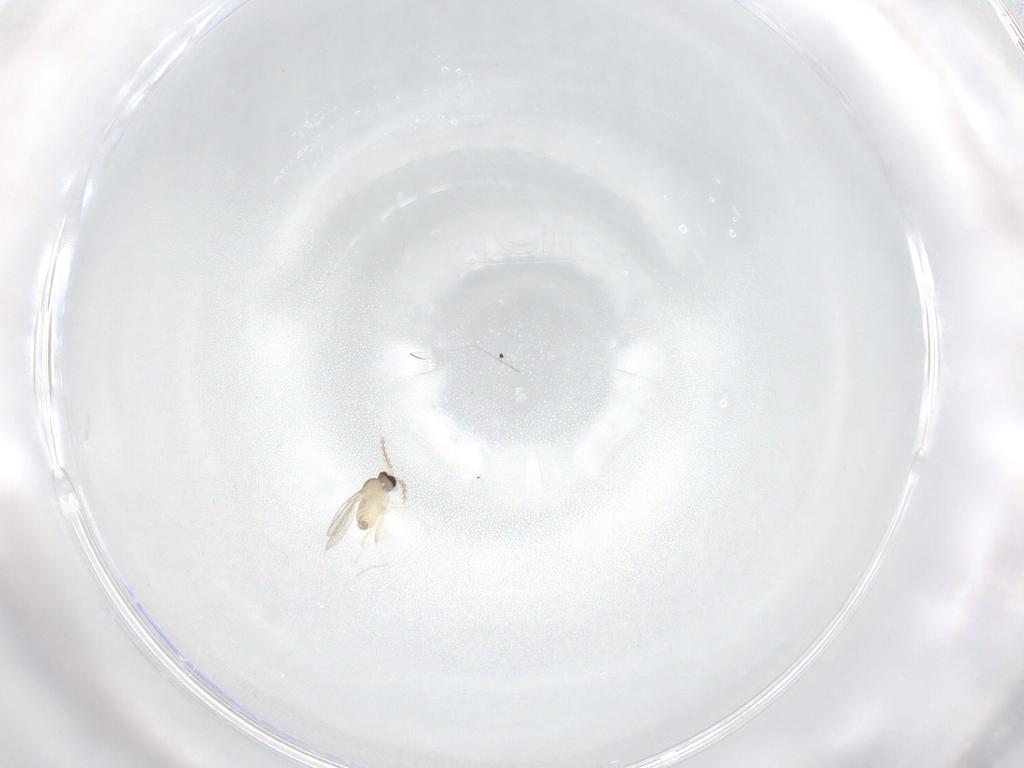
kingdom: Animalia
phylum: Arthropoda
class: Insecta
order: Diptera
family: Cecidomyiidae
